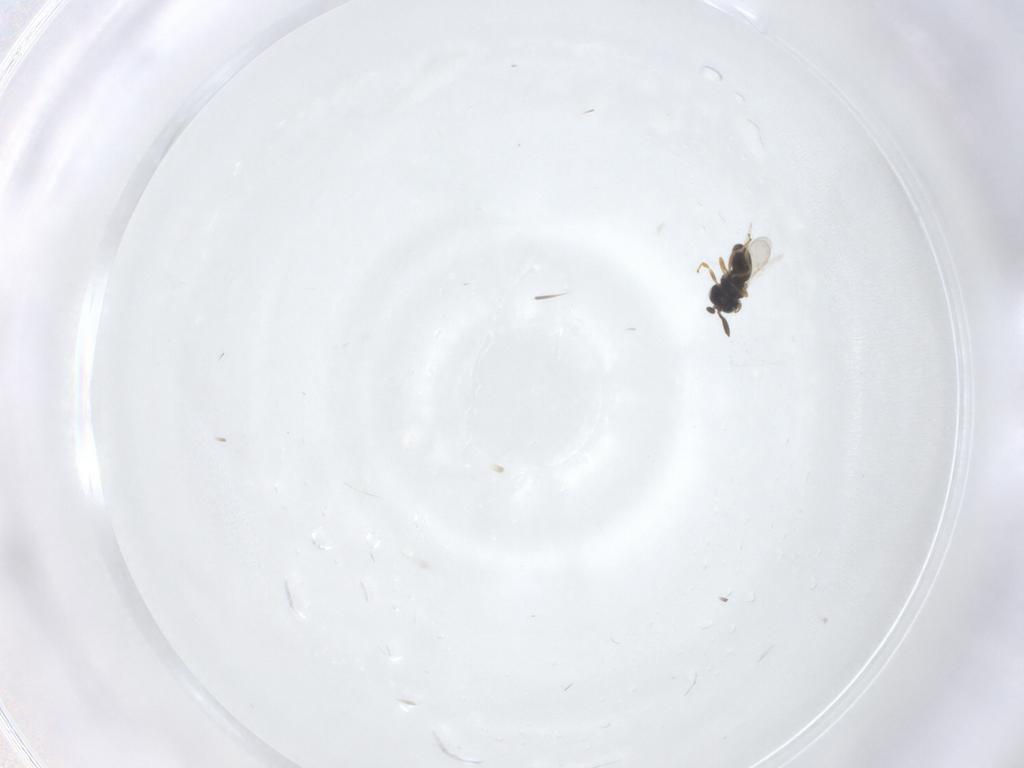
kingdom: Animalia
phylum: Arthropoda
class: Insecta
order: Hymenoptera
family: Scelionidae
